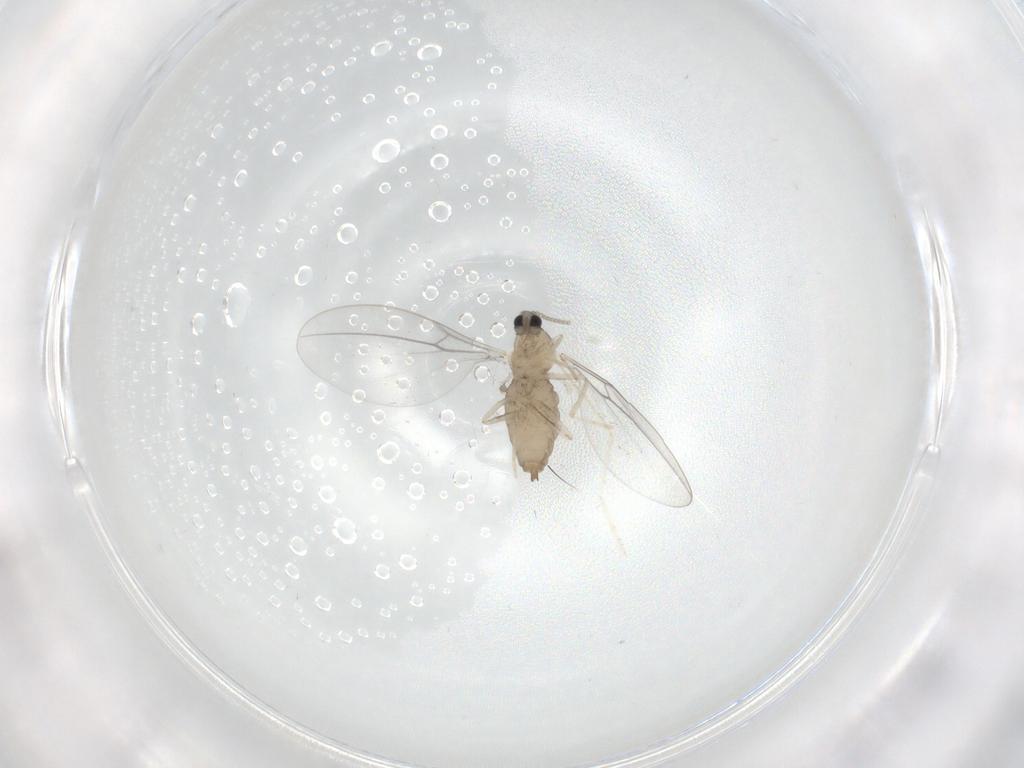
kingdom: Animalia
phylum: Arthropoda
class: Insecta
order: Diptera
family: Cecidomyiidae
